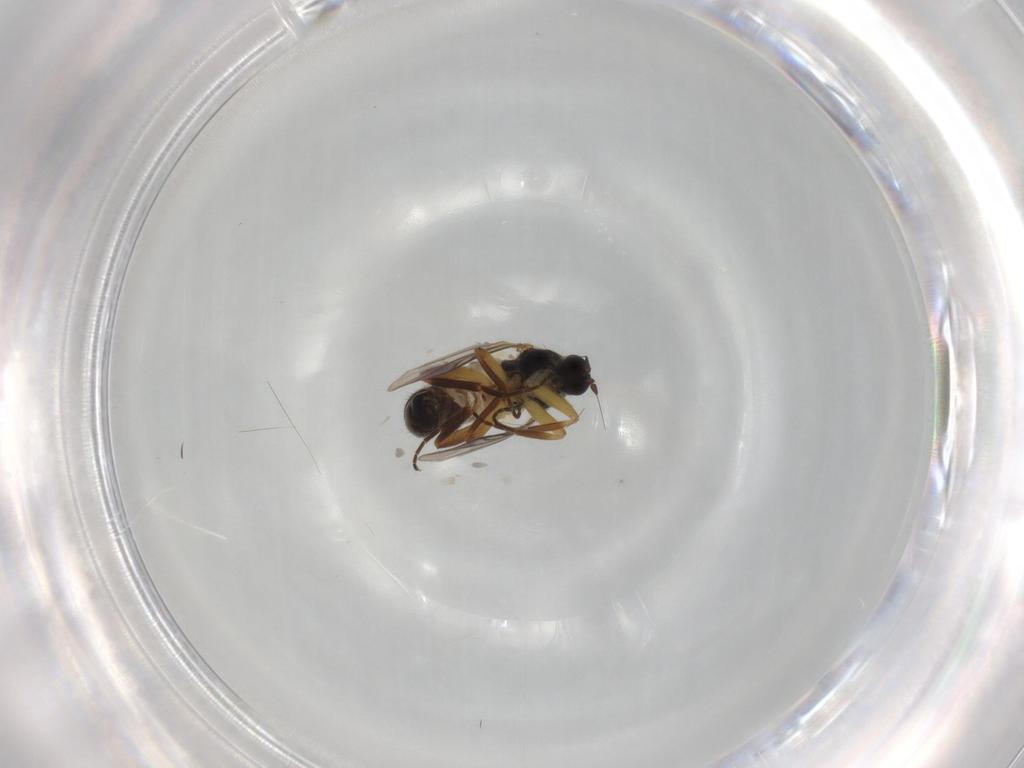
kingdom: Animalia
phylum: Arthropoda
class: Insecta
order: Diptera
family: Hybotidae
